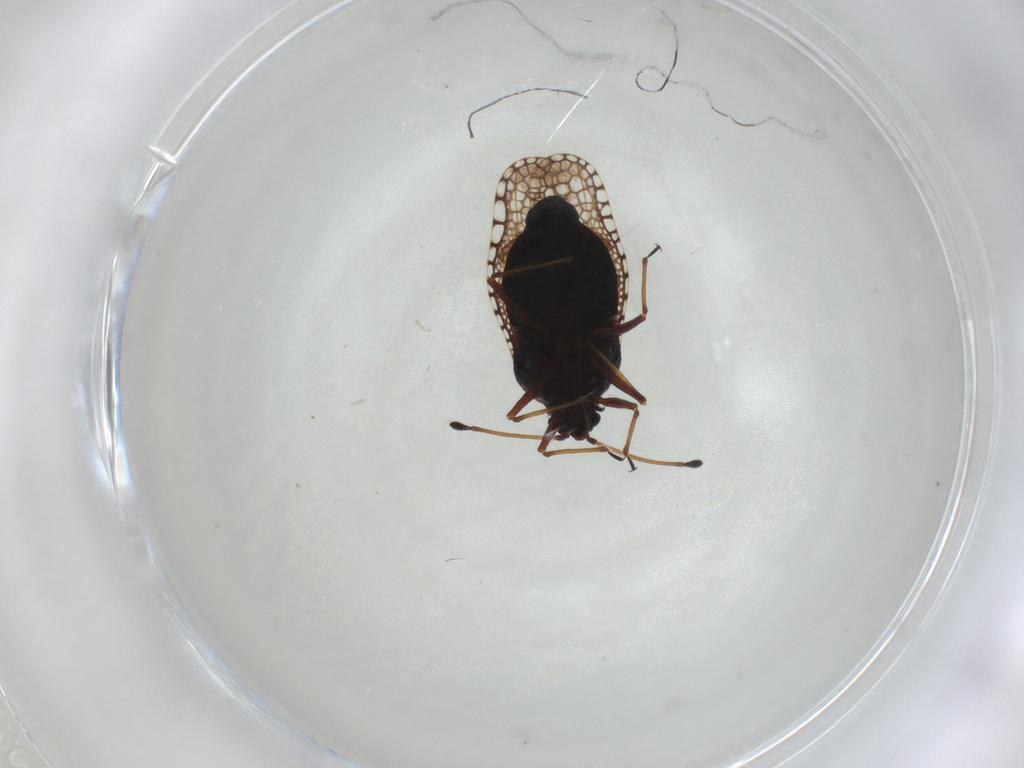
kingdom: Animalia
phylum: Arthropoda
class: Insecta
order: Hemiptera
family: Tingidae
